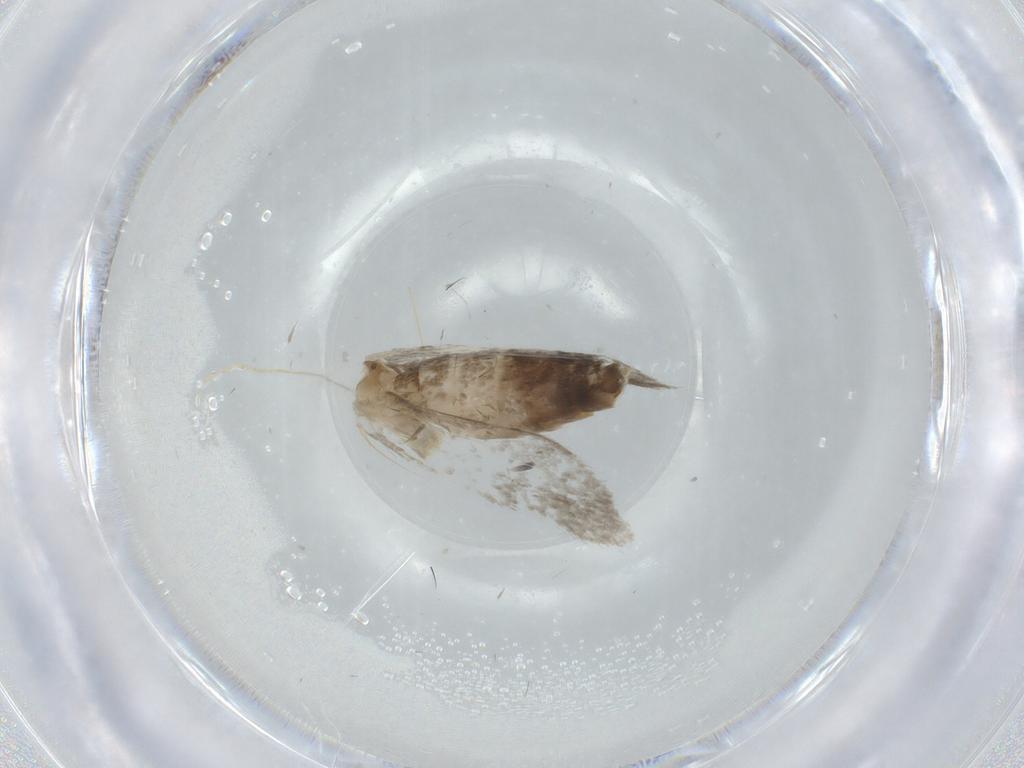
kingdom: Animalia
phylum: Arthropoda
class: Insecta
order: Lepidoptera
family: Tineidae
